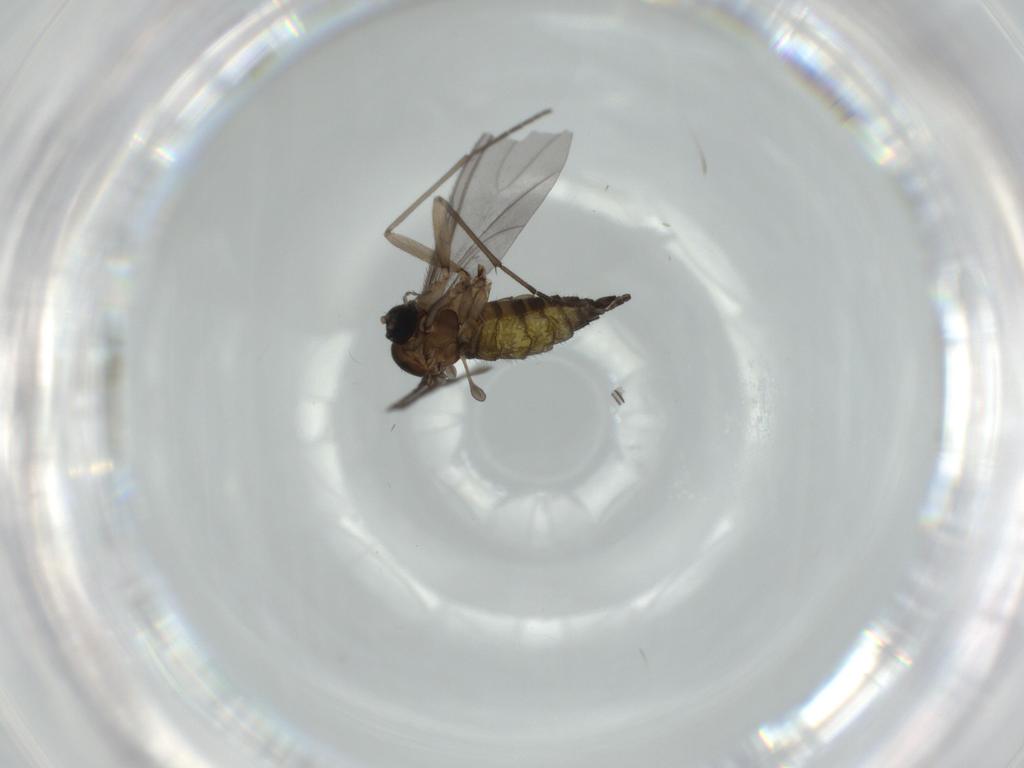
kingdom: Animalia
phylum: Arthropoda
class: Insecta
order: Diptera
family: Sciaridae
